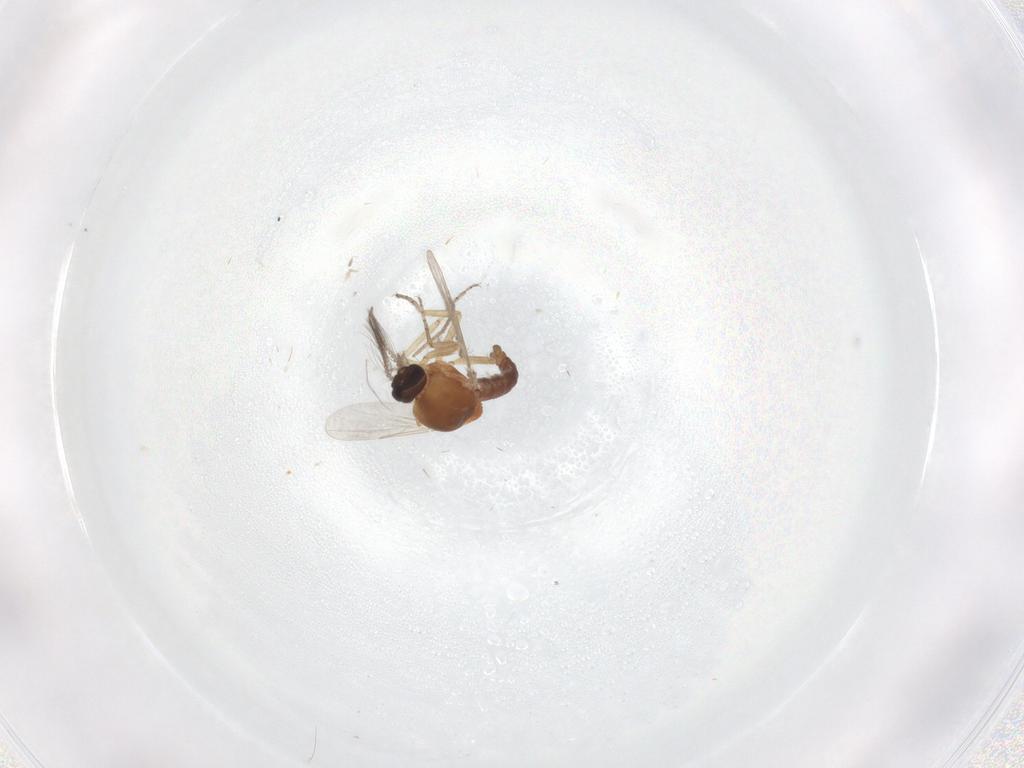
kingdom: Animalia
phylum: Arthropoda
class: Insecta
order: Diptera
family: Ceratopogonidae
